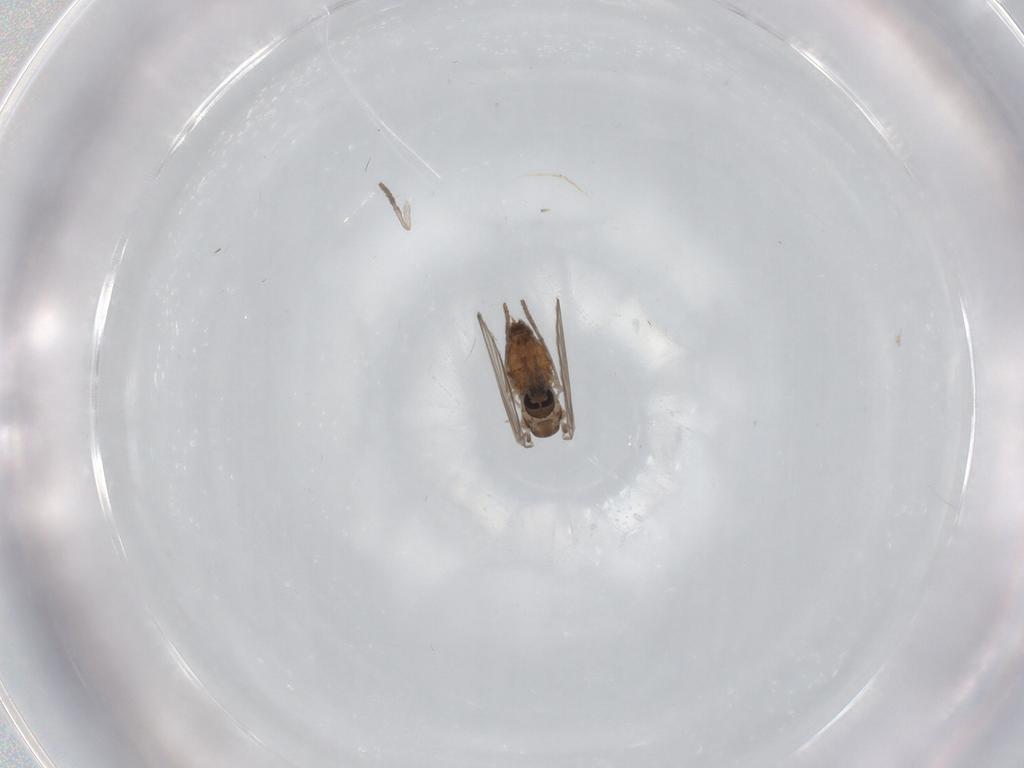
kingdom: Animalia
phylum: Arthropoda
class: Insecta
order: Diptera
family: Psychodidae
